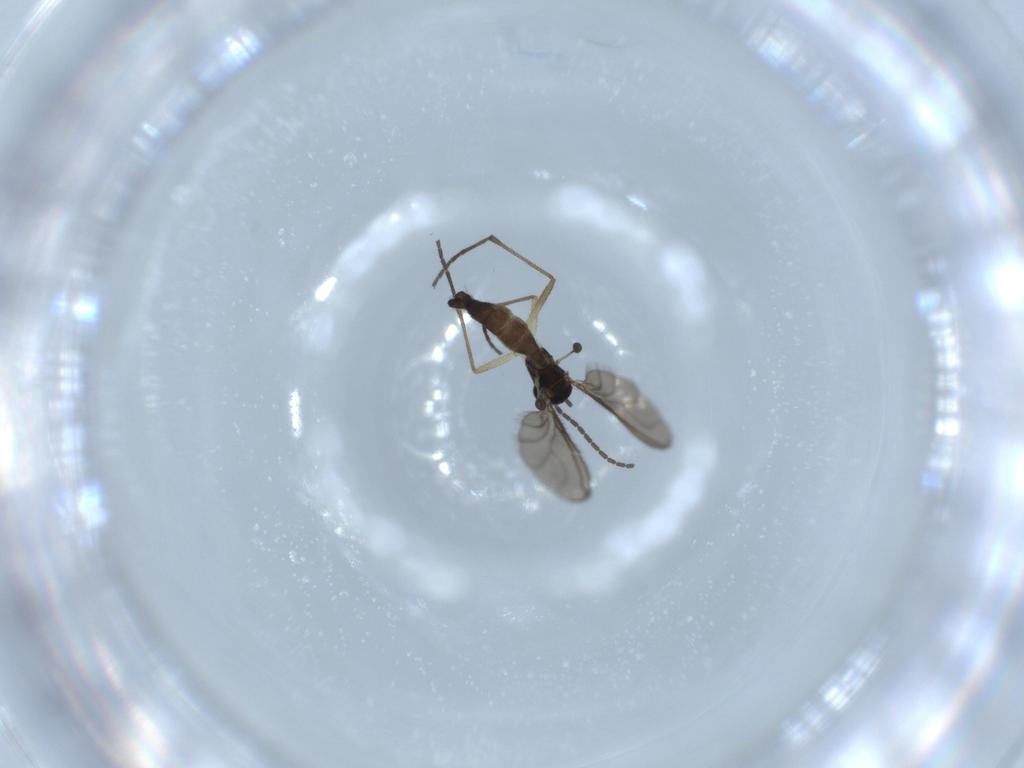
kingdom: Animalia
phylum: Arthropoda
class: Insecta
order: Diptera
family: Sciaridae
